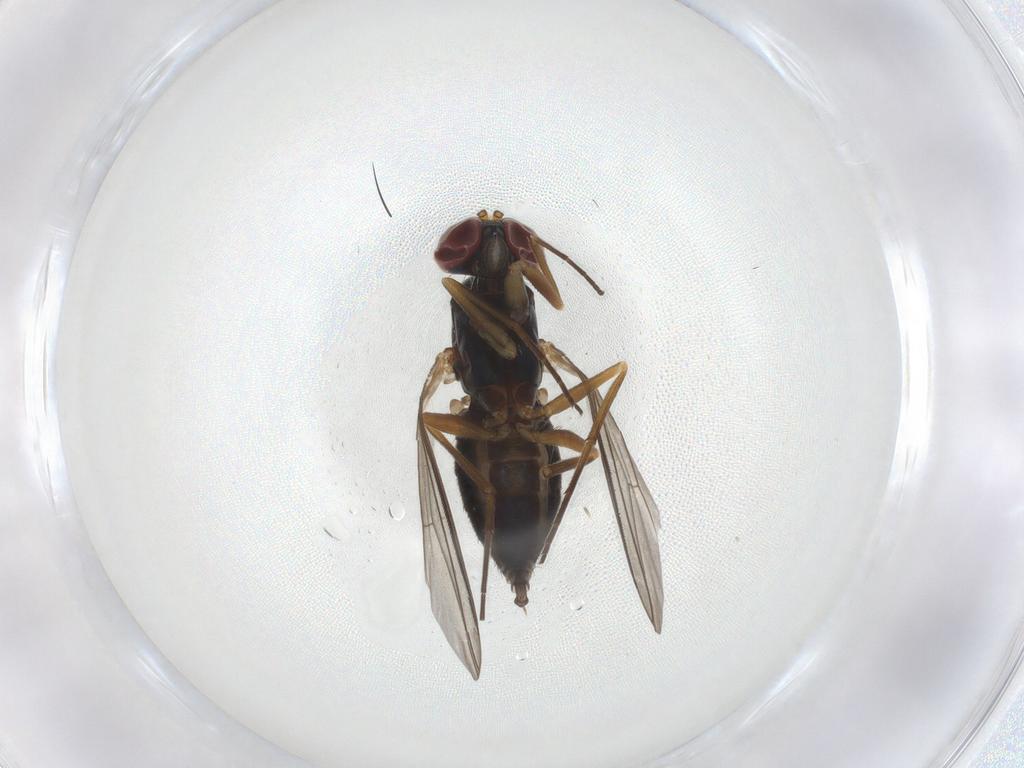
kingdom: Animalia
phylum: Arthropoda
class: Insecta
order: Diptera
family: Dolichopodidae
